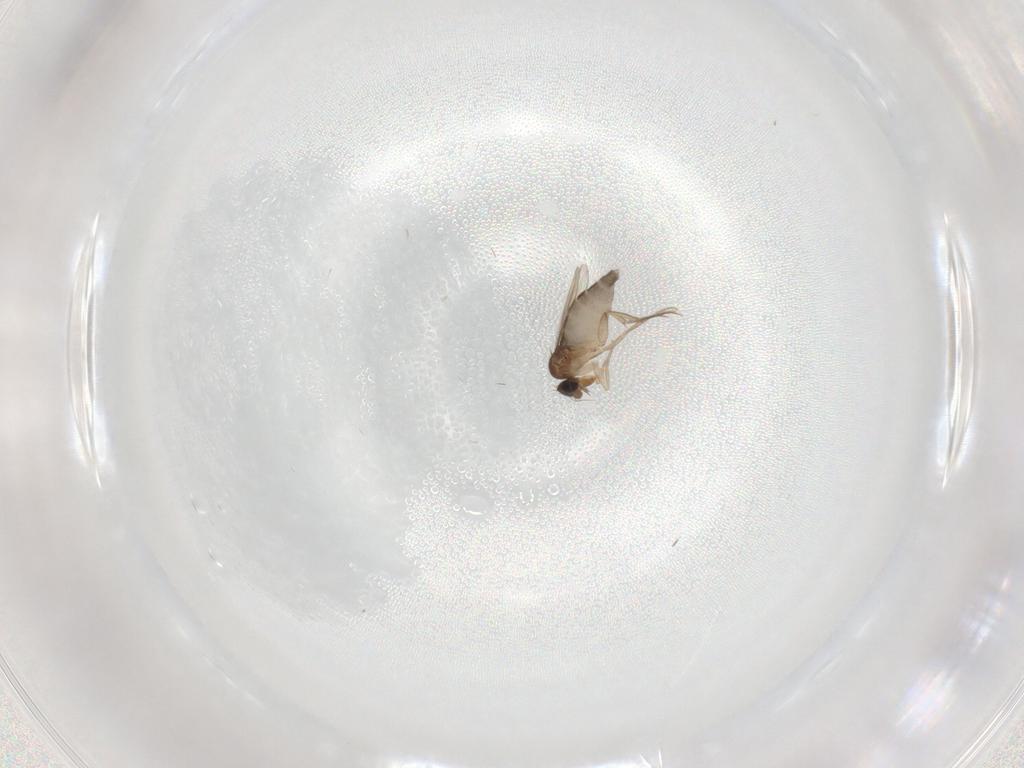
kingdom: Animalia
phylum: Arthropoda
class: Insecta
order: Diptera
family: Cecidomyiidae
